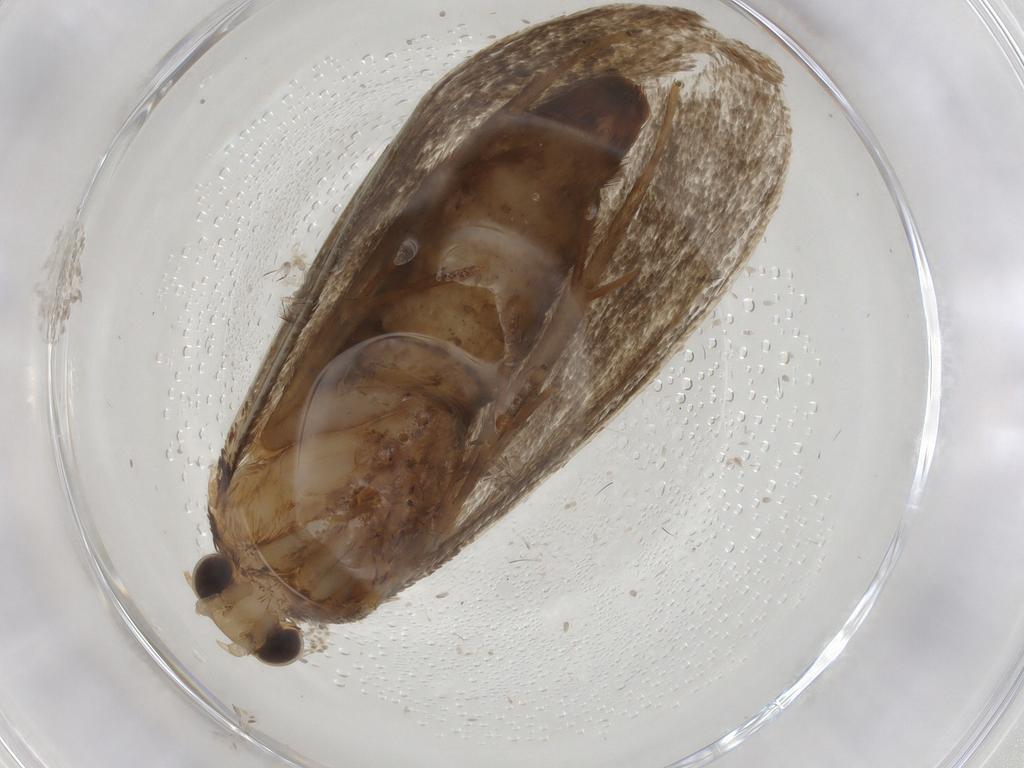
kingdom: Animalia
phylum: Arthropoda
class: Insecta
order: Lepidoptera
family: Tineidae
